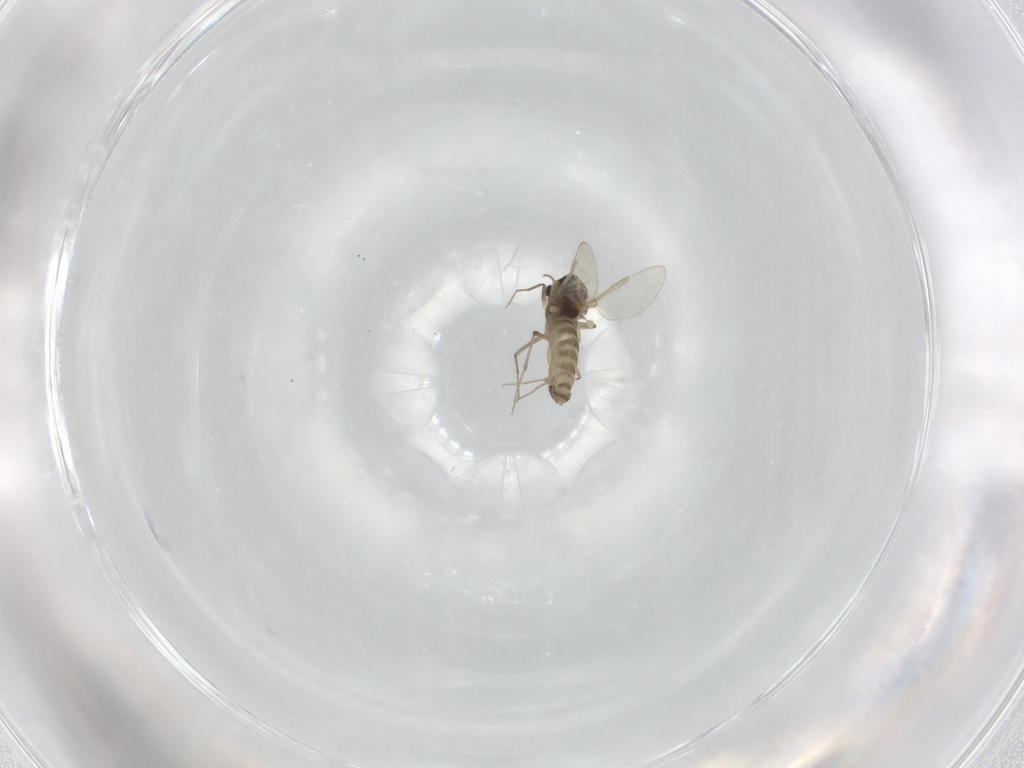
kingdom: Animalia
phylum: Arthropoda
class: Insecta
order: Diptera
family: Chironomidae
